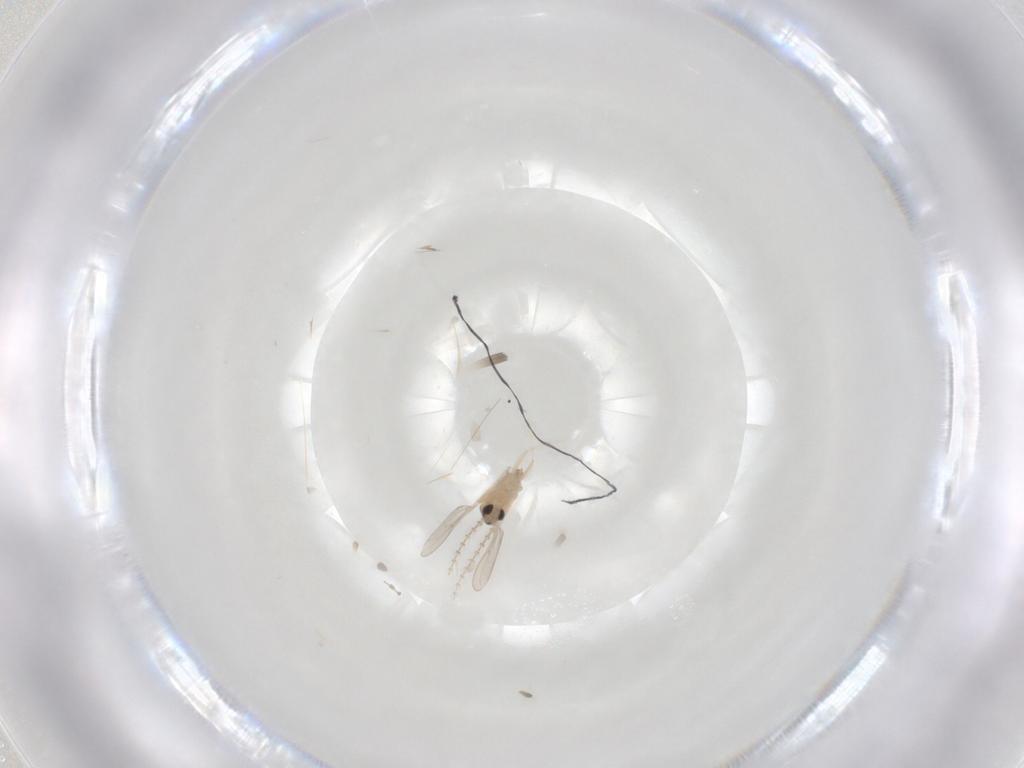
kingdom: Animalia
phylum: Arthropoda
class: Insecta
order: Diptera
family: Cecidomyiidae
